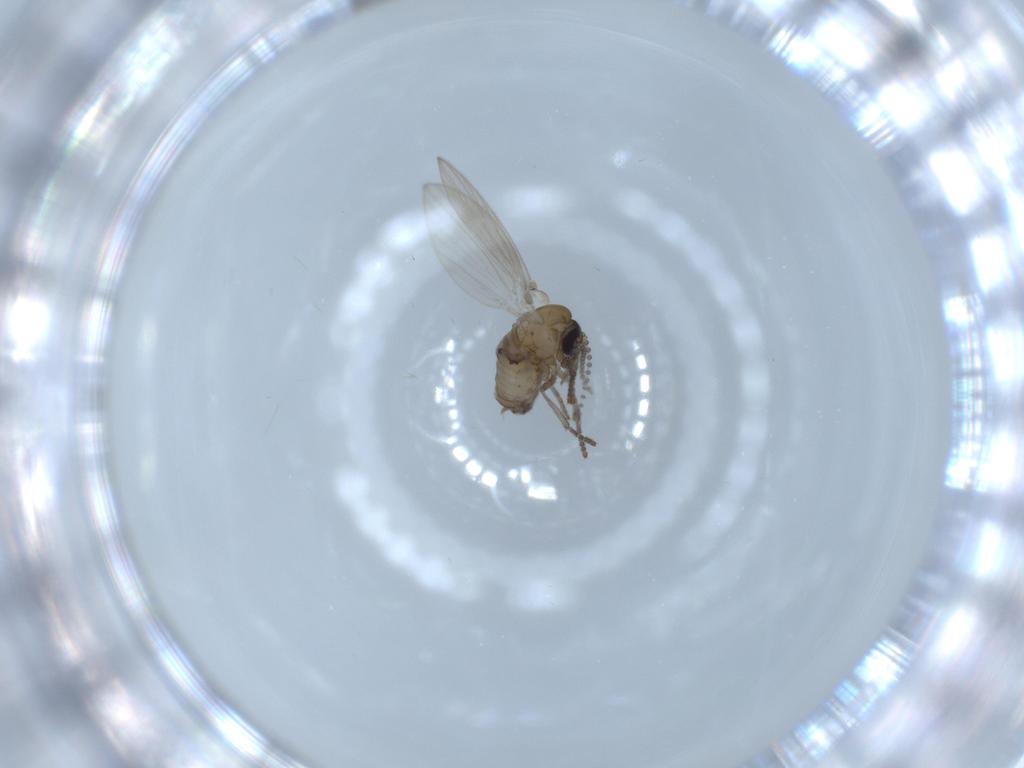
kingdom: Animalia
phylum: Arthropoda
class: Insecta
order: Diptera
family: Psychodidae
